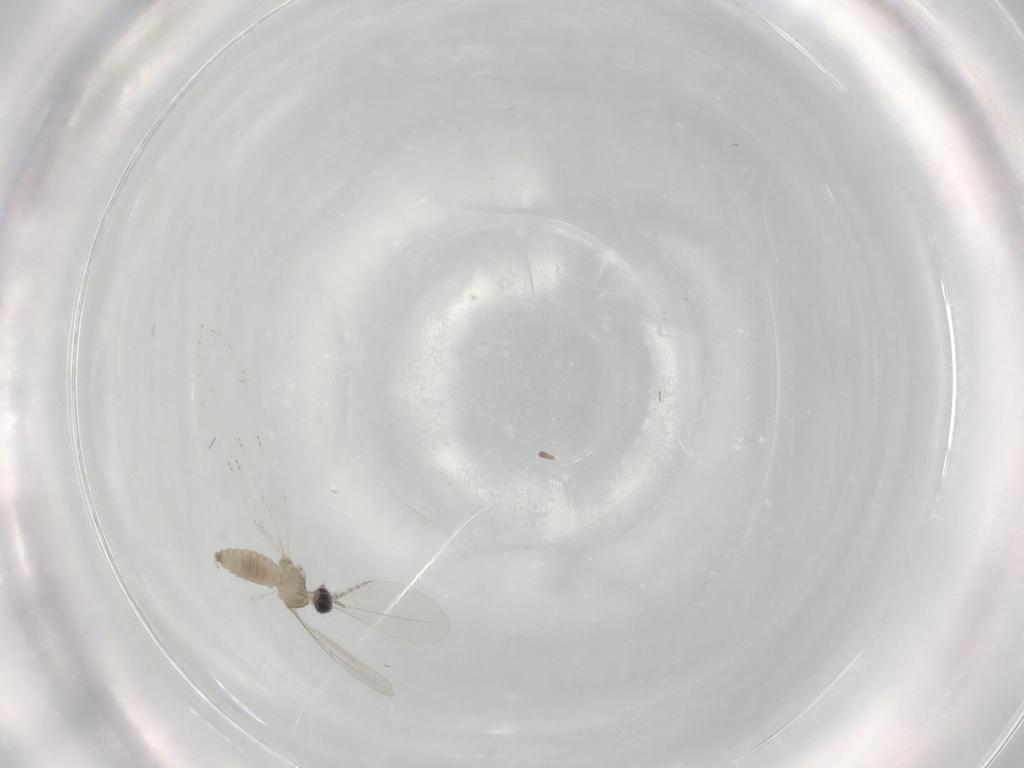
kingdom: Animalia
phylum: Arthropoda
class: Insecta
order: Diptera
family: Chironomidae
